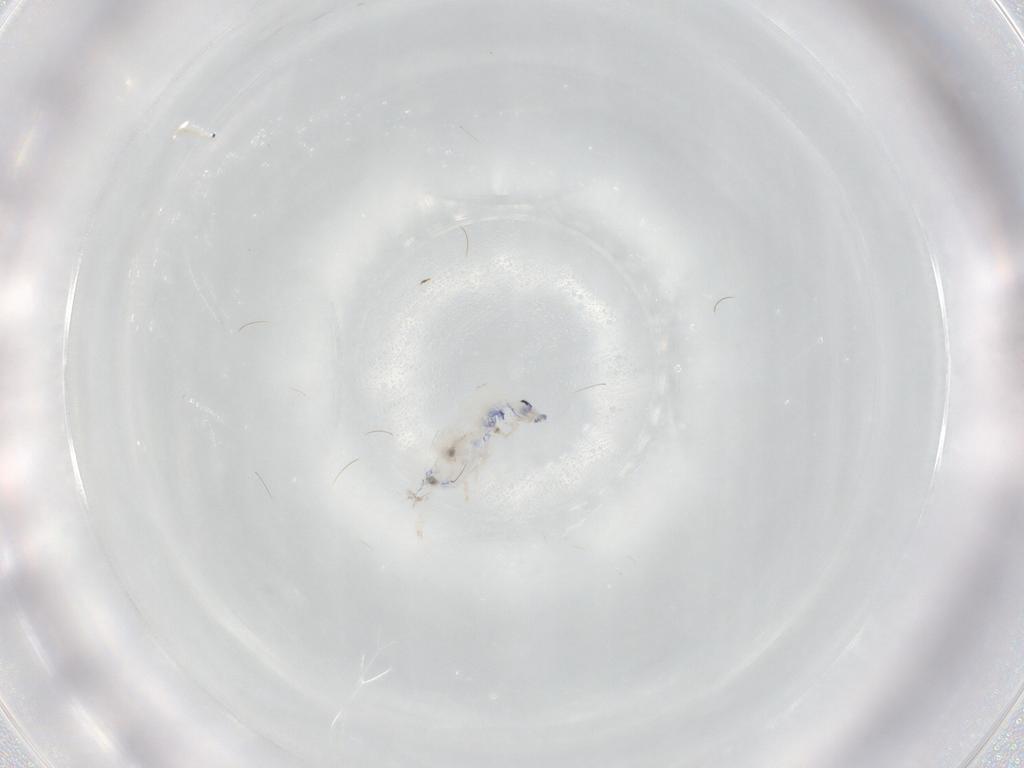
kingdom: Animalia
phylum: Arthropoda
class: Collembola
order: Entomobryomorpha
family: Entomobryidae
